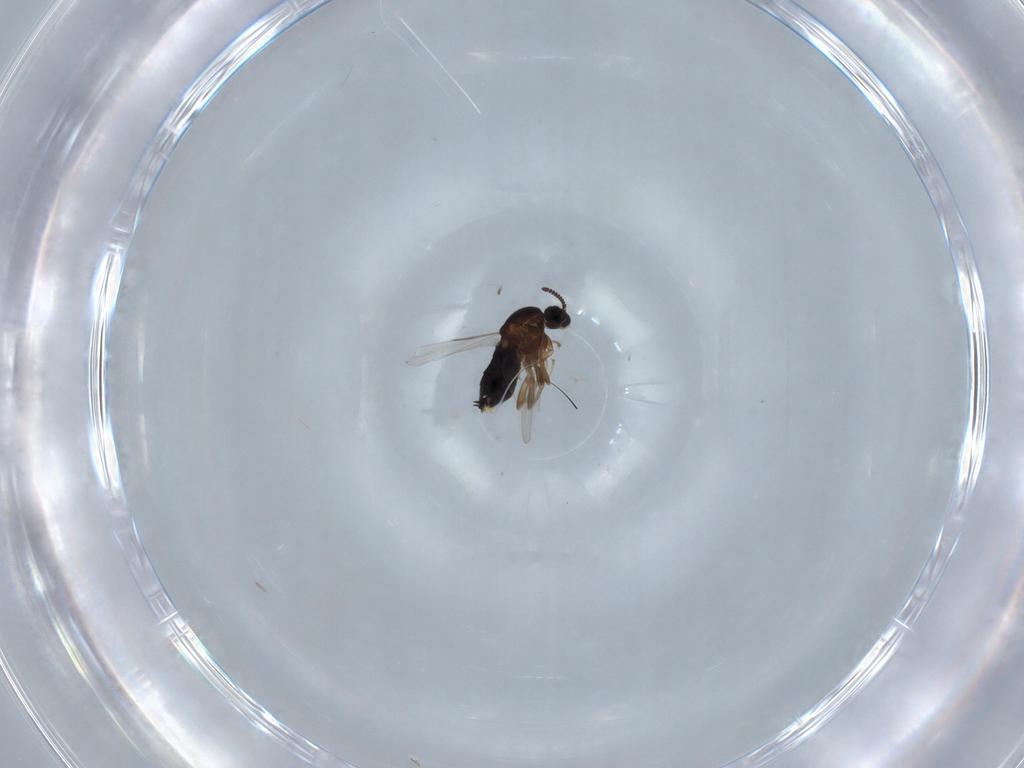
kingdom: Animalia
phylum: Arthropoda
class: Insecta
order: Diptera
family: Scatopsidae
